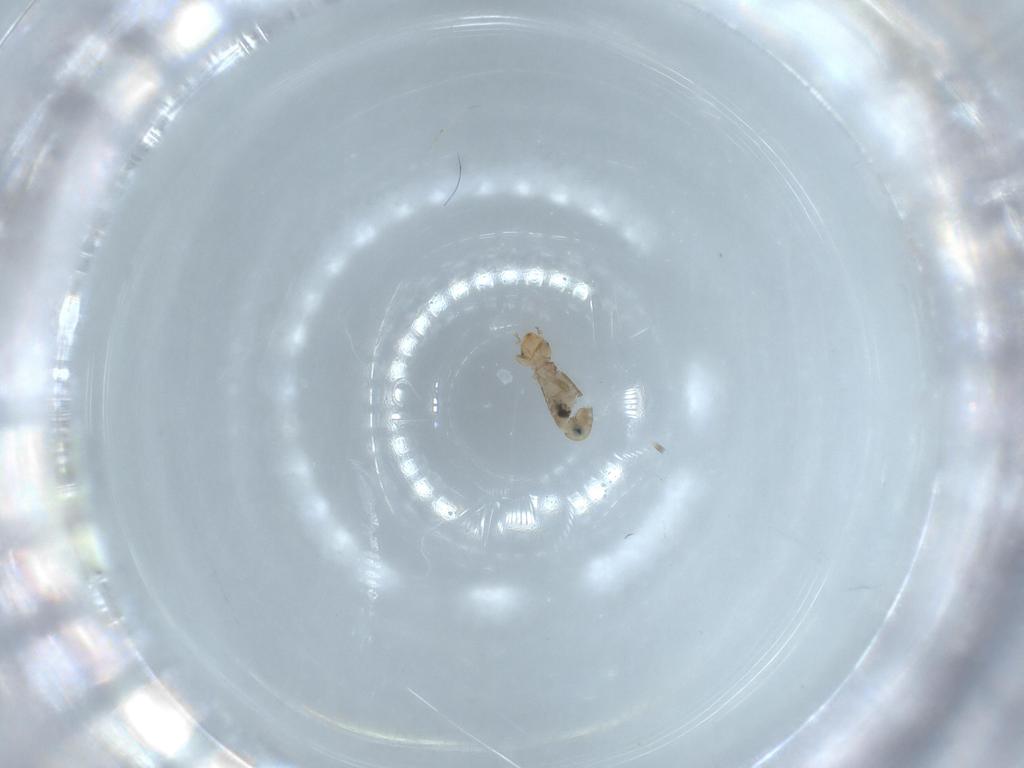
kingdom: Animalia
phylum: Arthropoda
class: Insecta
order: Psocodea
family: Liposcelididae
